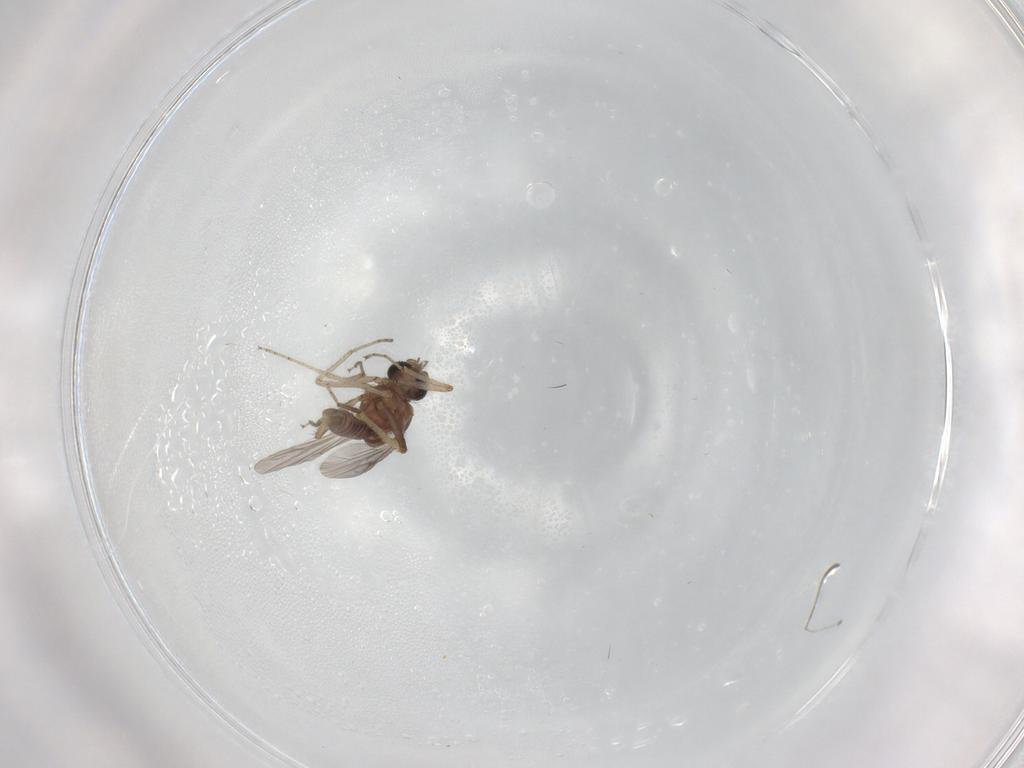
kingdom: Animalia
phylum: Arthropoda
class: Insecta
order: Diptera
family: Ceratopogonidae
